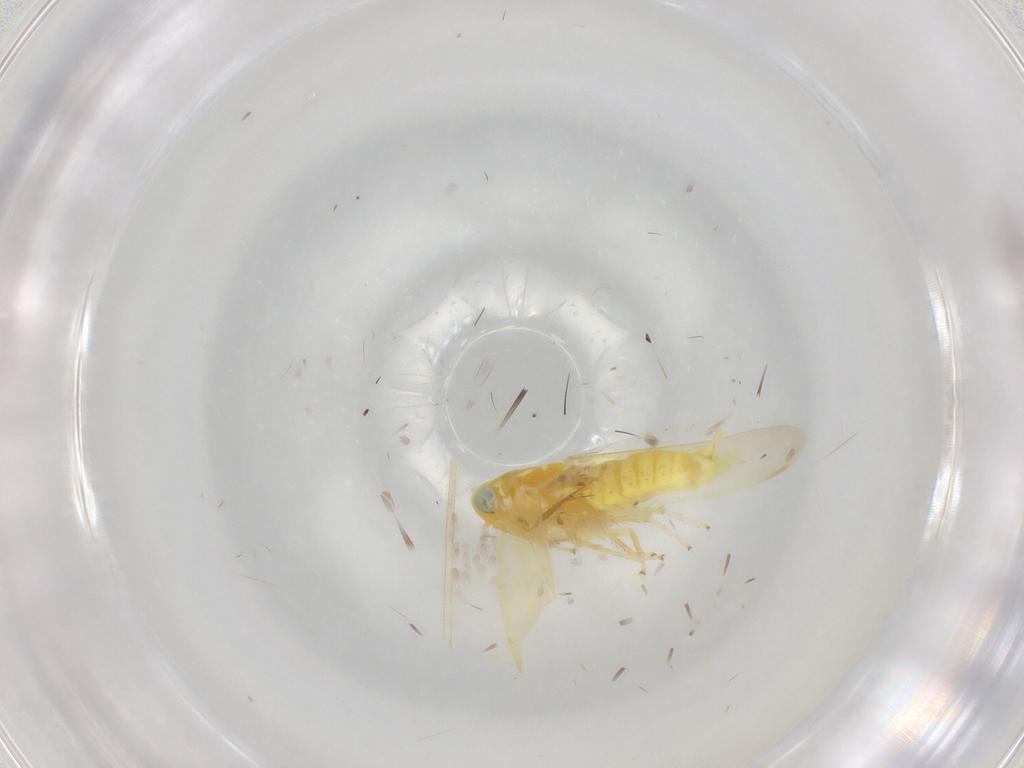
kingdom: Animalia
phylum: Arthropoda
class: Insecta
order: Hemiptera
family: Cicadellidae
